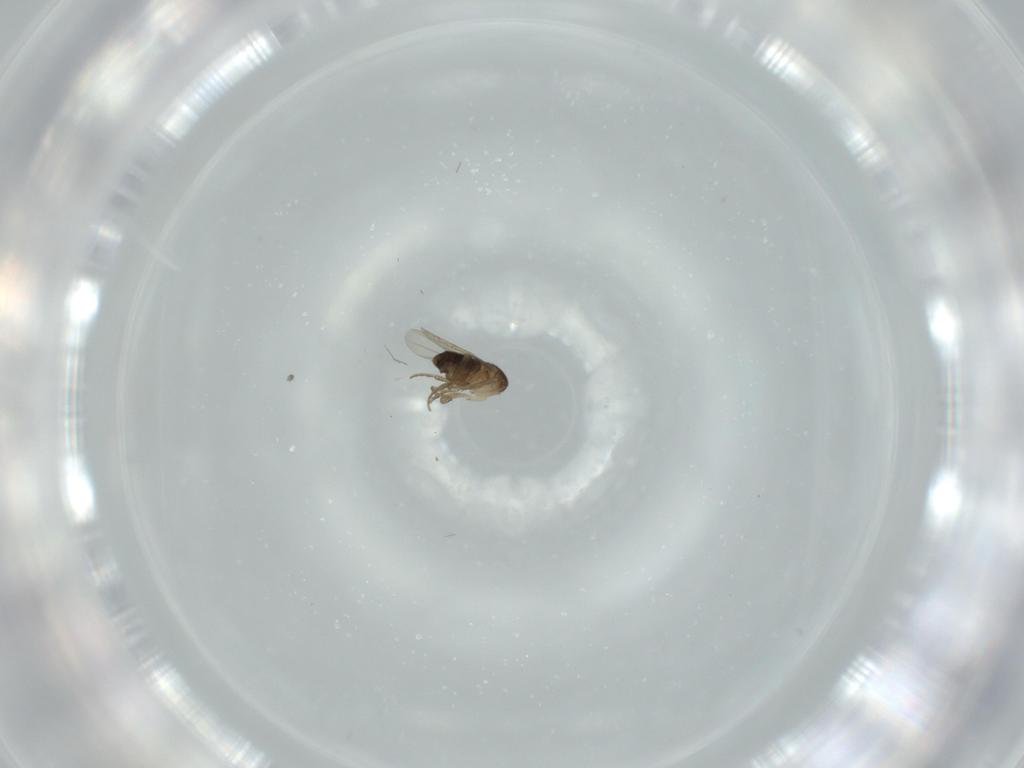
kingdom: Animalia
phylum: Arthropoda
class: Insecta
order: Diptera
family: Phoridae
